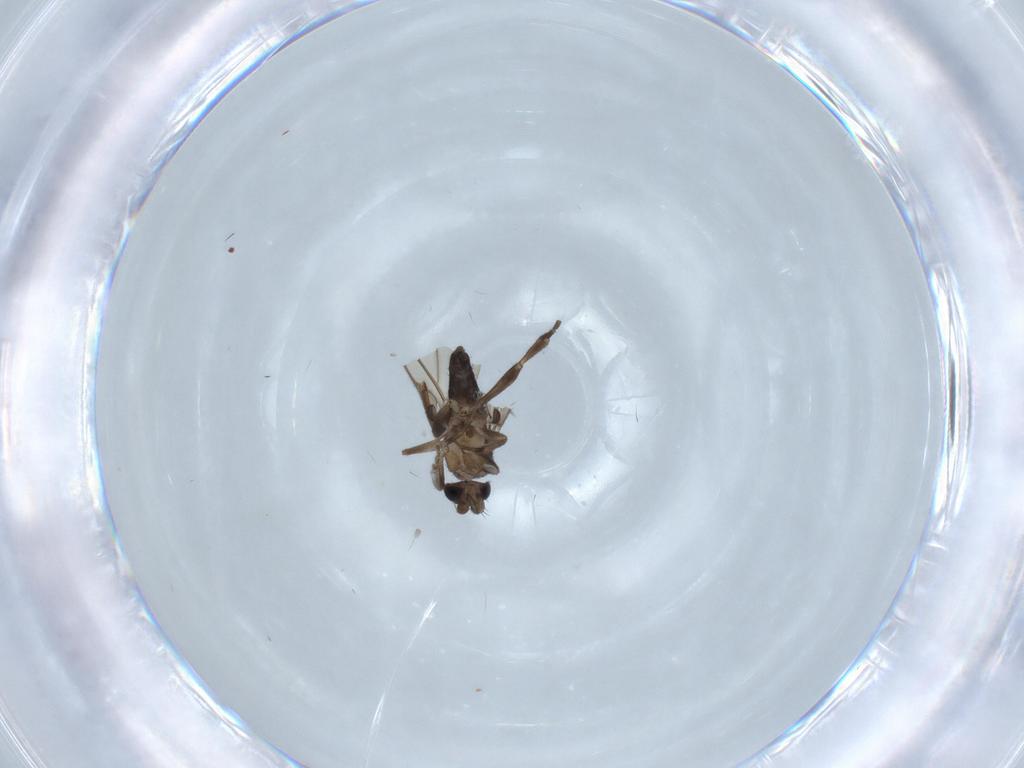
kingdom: Animalia
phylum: Arthropoda
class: Insecta
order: Diptera
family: Phoridae
